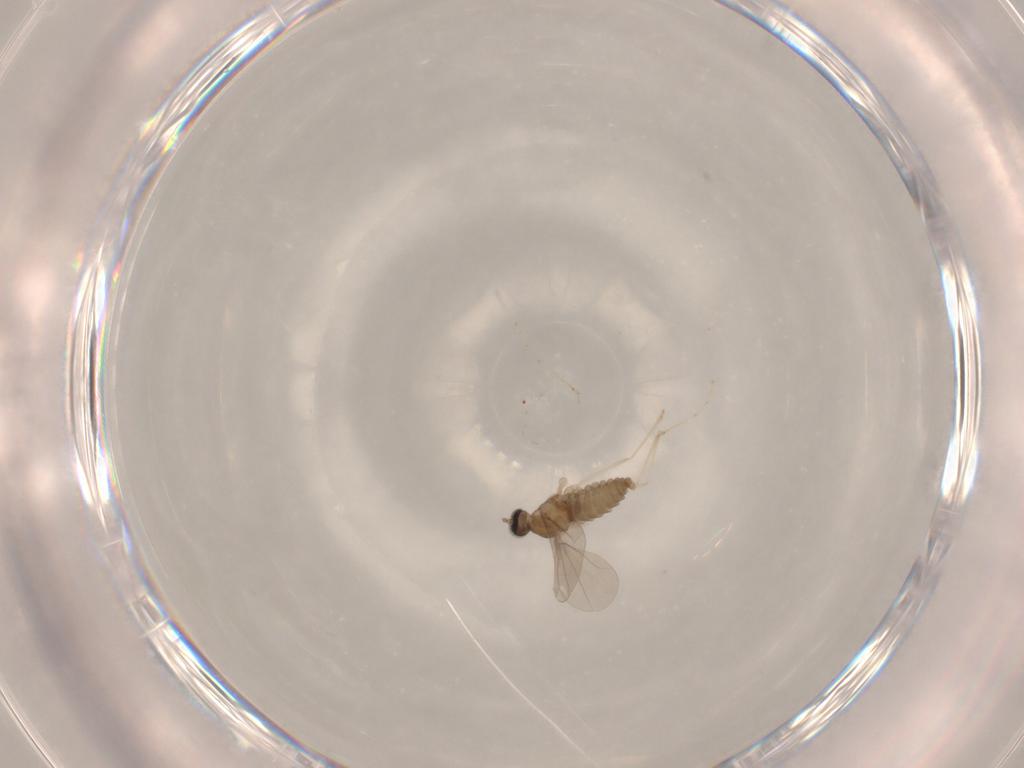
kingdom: Animalia
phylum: Arthropoda
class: Insecta
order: Diptera
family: Cecidomyiidae
